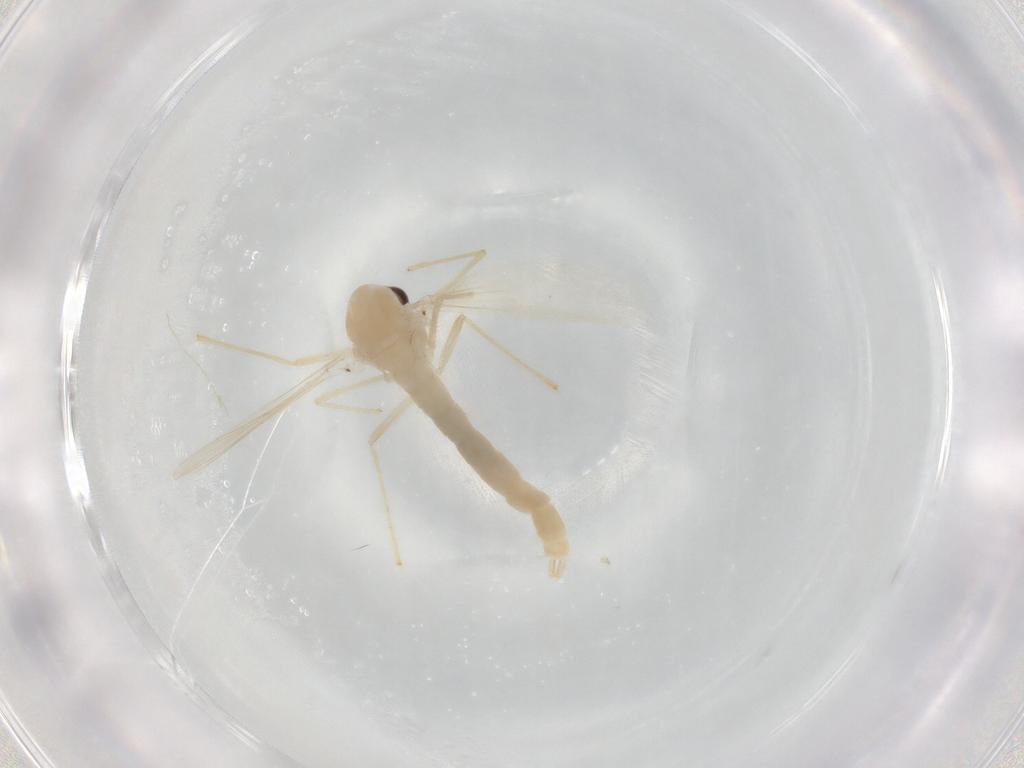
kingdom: Animalia
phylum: Arthropoda
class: Insecta
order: Diptera
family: Chironomidae
